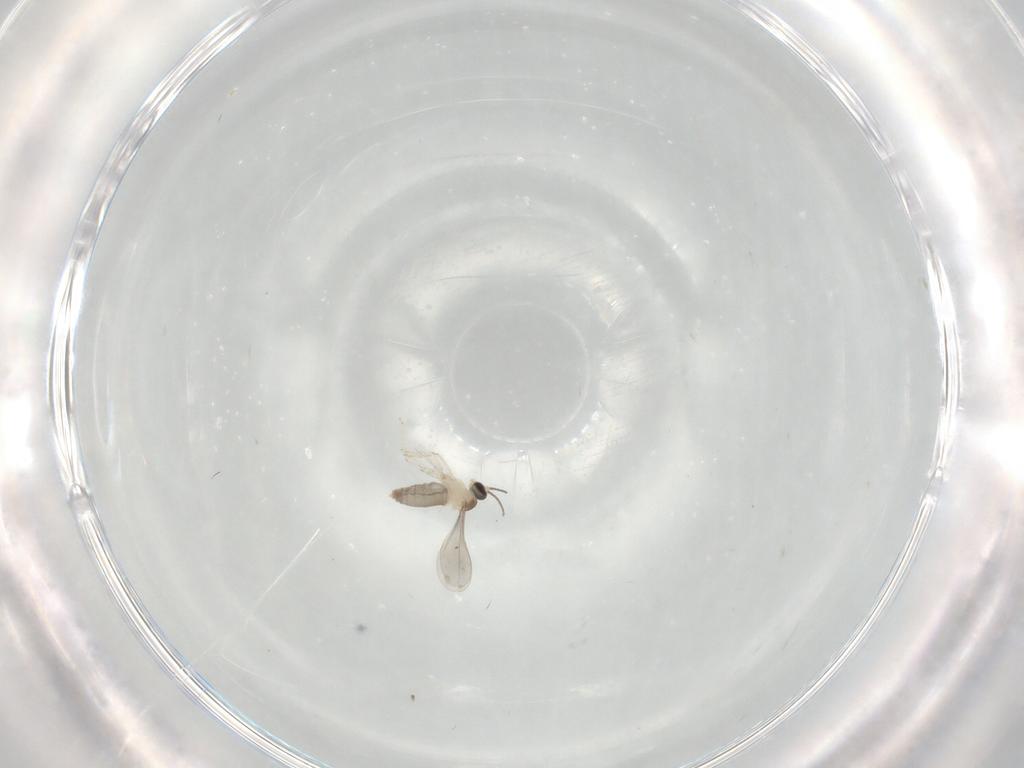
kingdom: Animalia
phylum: Arthropoda
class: Insecta
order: Diptera
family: Cecidomyiidae
